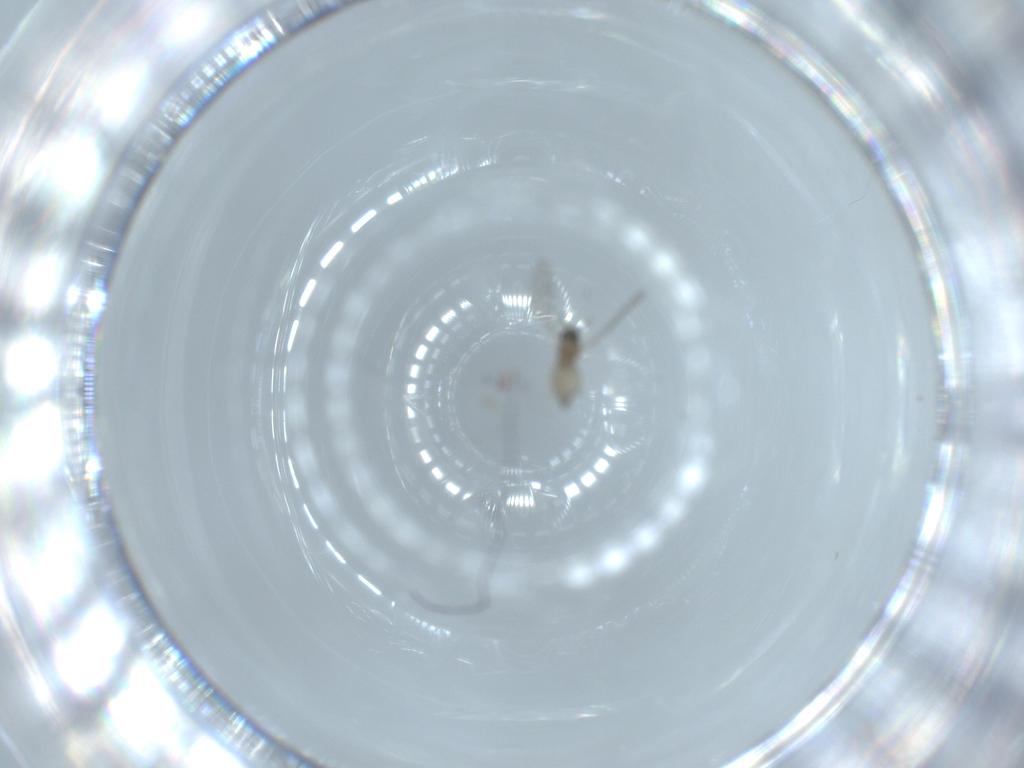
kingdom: Animalia
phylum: Arthropoda
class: Insecta
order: Diptera
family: Cecidomyiidae
